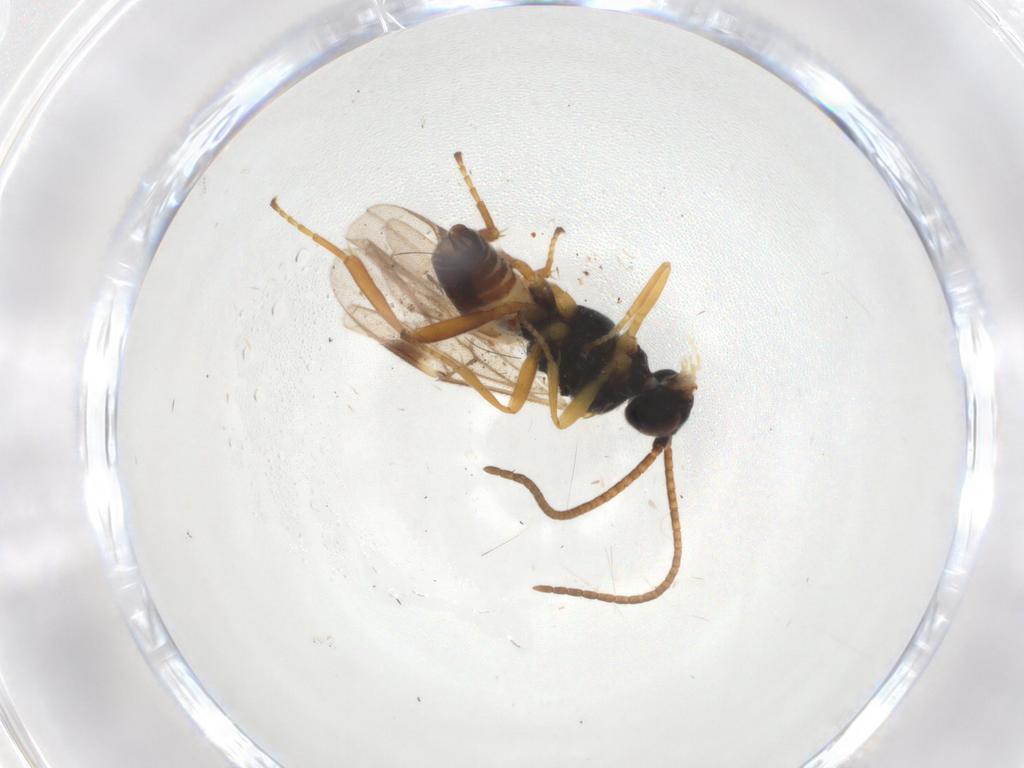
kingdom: Animalia
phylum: Arthropoda
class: Insecta
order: Hymenoptera
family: Braconidae
